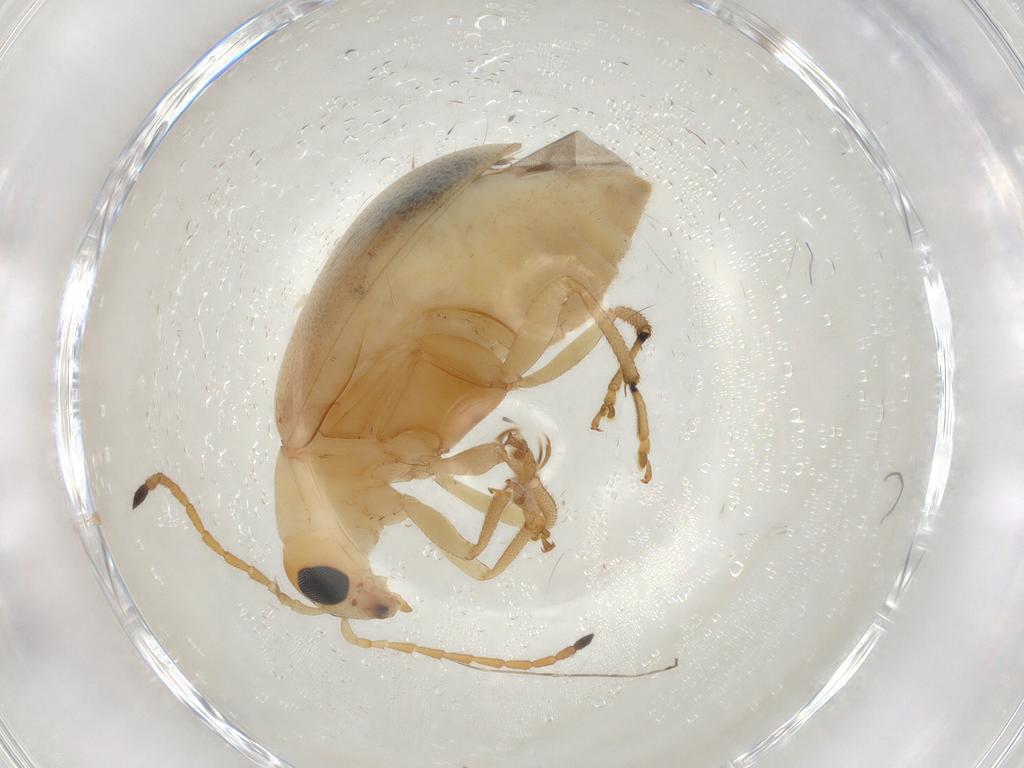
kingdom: Animalia
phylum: Arthropoda
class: Insecta
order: Coleoptera
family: Chrysomelidae
